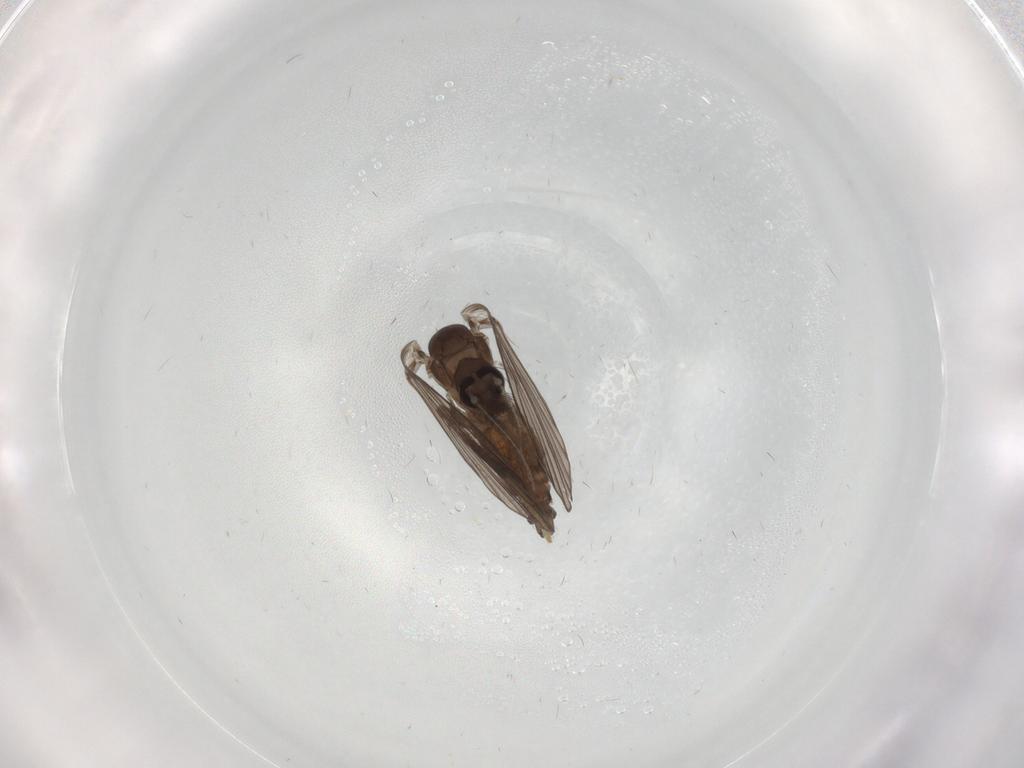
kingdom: Animalia
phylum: Arthropoda
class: Insecta
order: Diptera
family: Psychodidae
